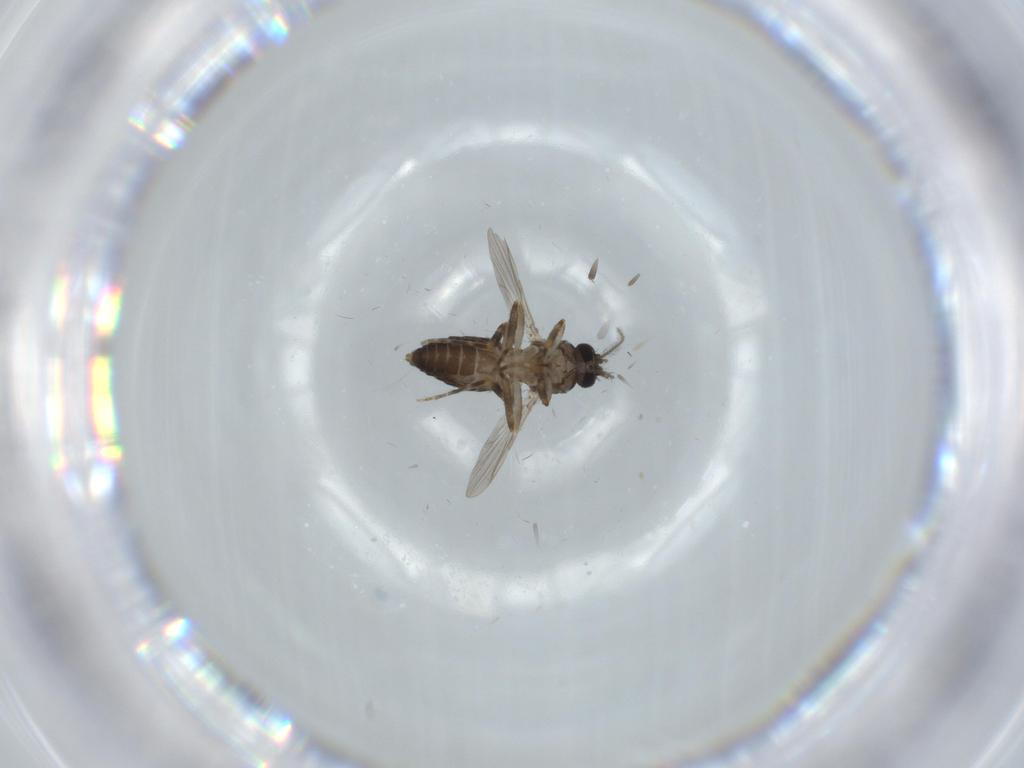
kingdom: Animalia
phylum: Arthropoda
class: Insecta
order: Diptera
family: Ceratopogonidae
